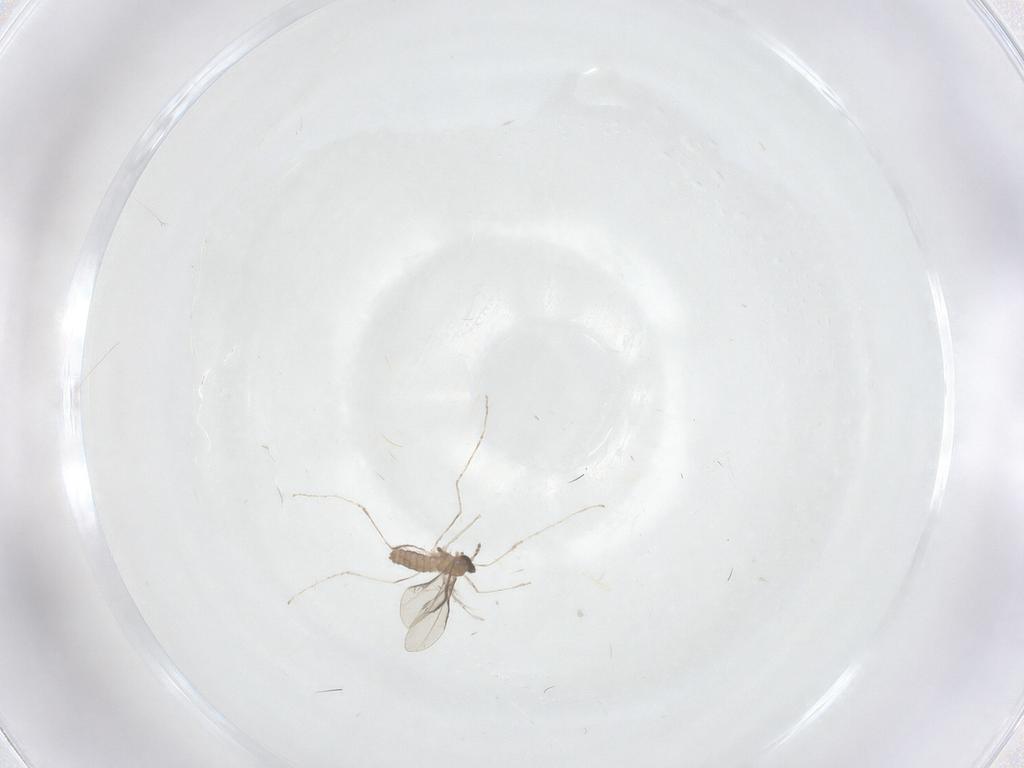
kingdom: Animalia
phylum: Arthropoda
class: Insecta
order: Diptera
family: Cecidomyiidae
